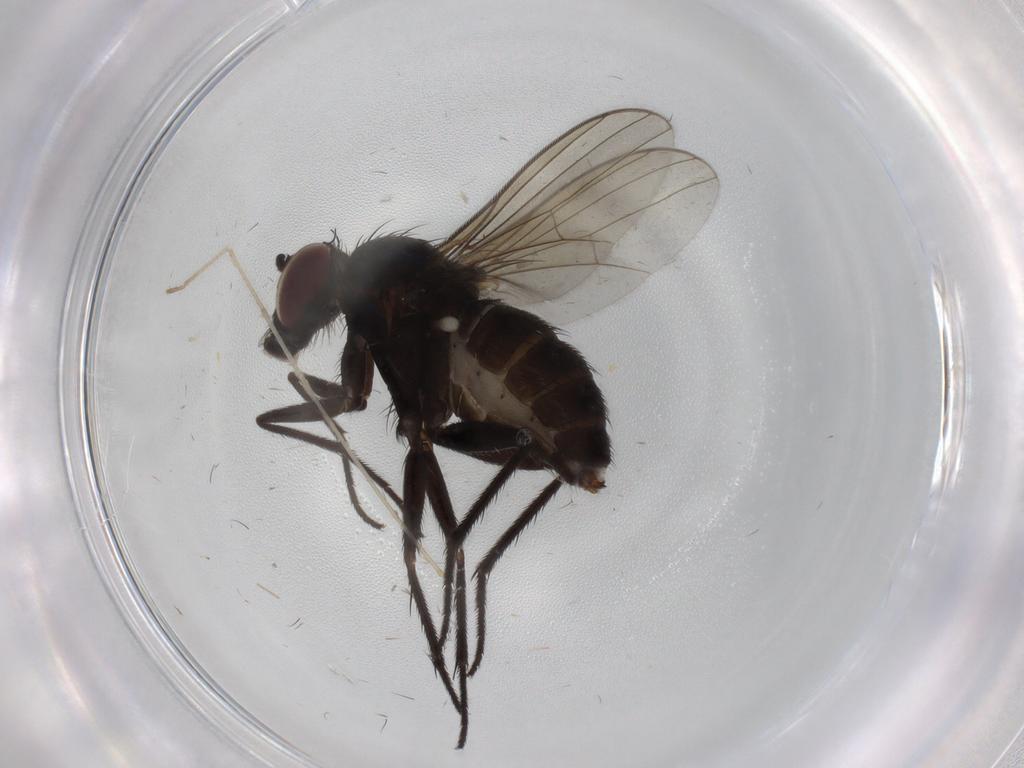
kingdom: Animalia
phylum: Arthropoda
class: Insecta
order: Diptera
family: Dolichopodidae
